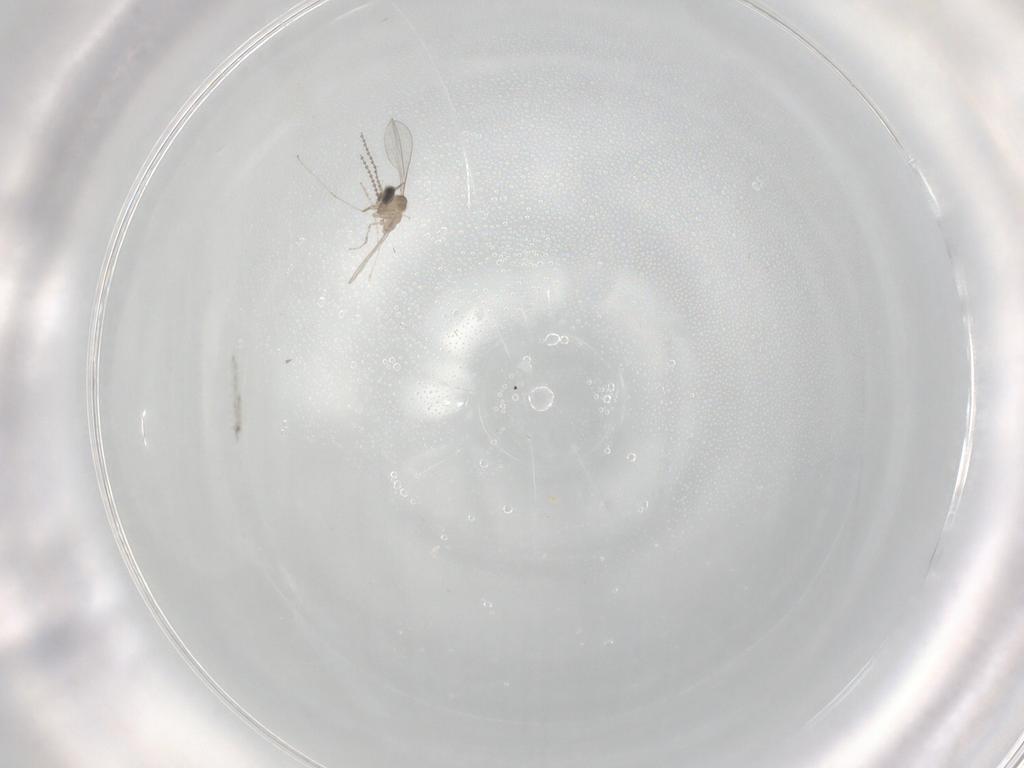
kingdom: Animalia
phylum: Arthropoda
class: Insecta
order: Diptera
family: Cecidomyiidae
